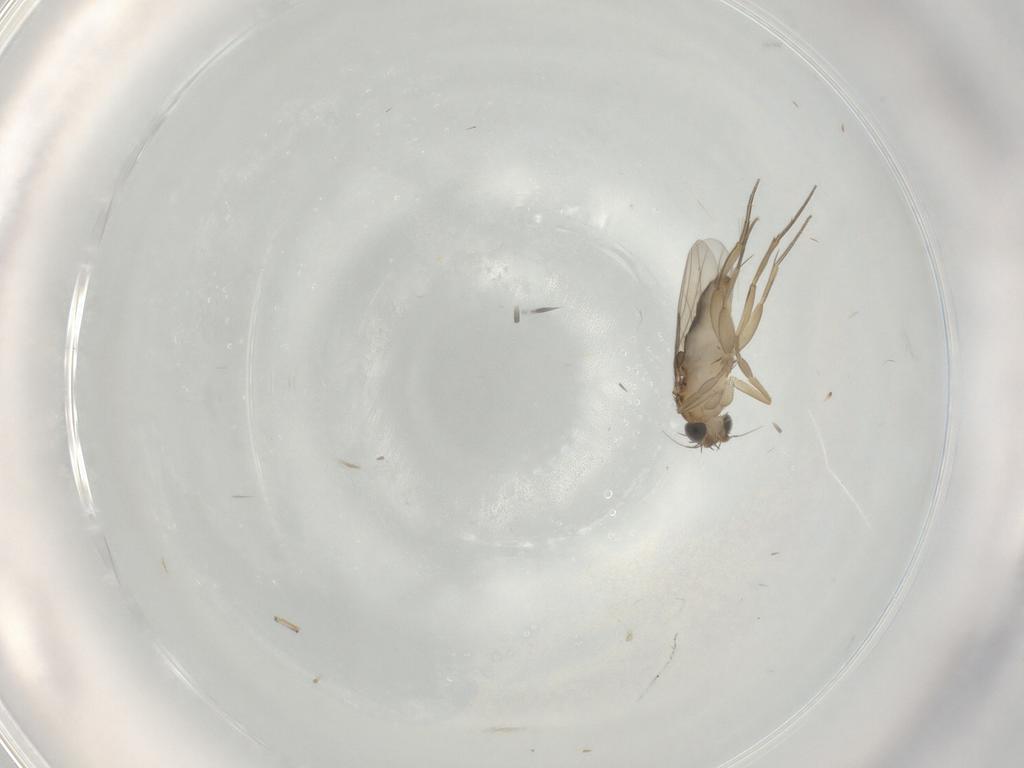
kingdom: Animalia
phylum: Arthropoda
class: Insecta
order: Diptera
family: Phoridae
